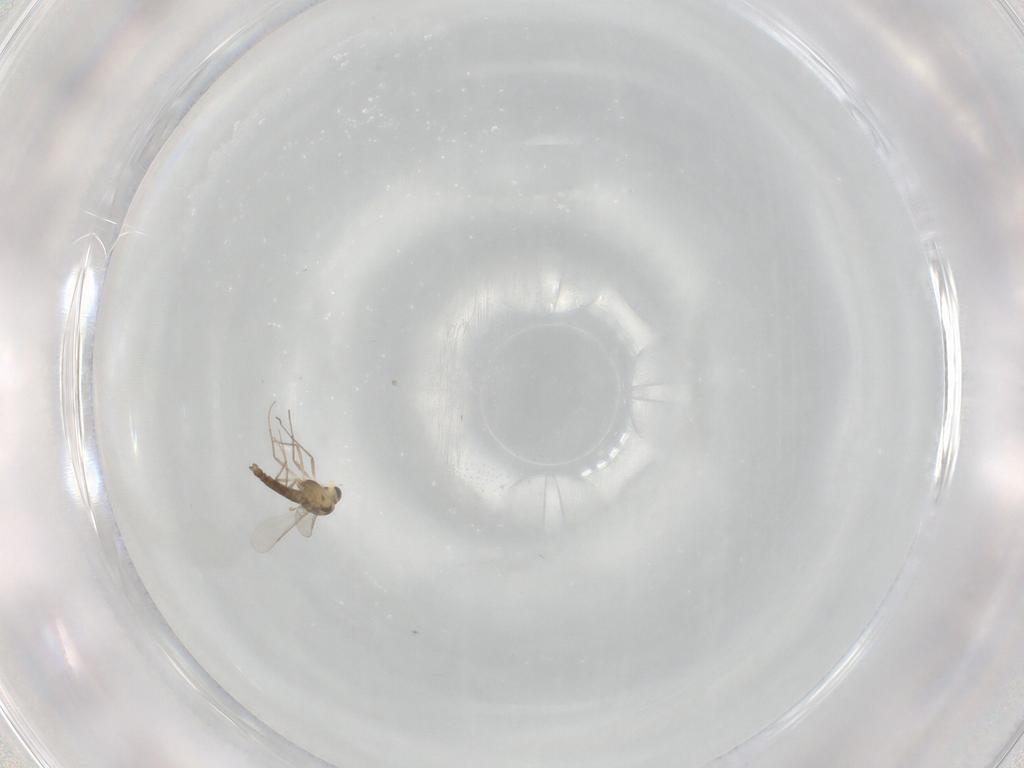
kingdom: Animalia
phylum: Arthropoda
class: Insecta
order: Diptera
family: Chironomidae
